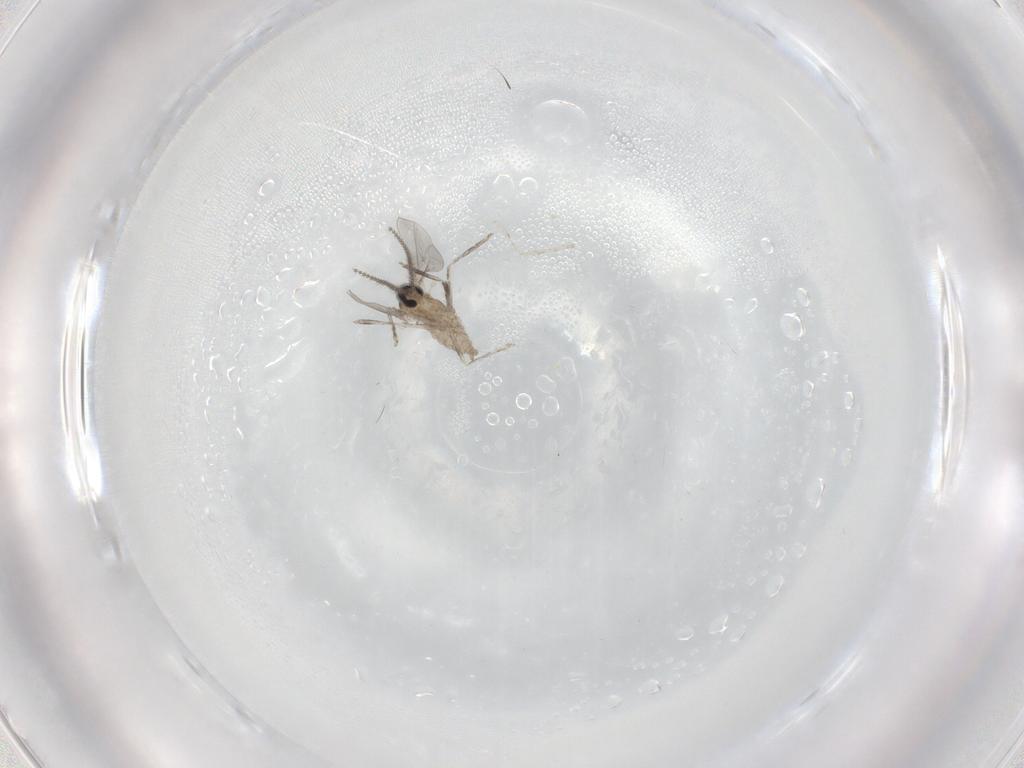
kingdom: Animalia
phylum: Arthropoda
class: Insecta
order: Diptera
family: Cecidomyiidae
